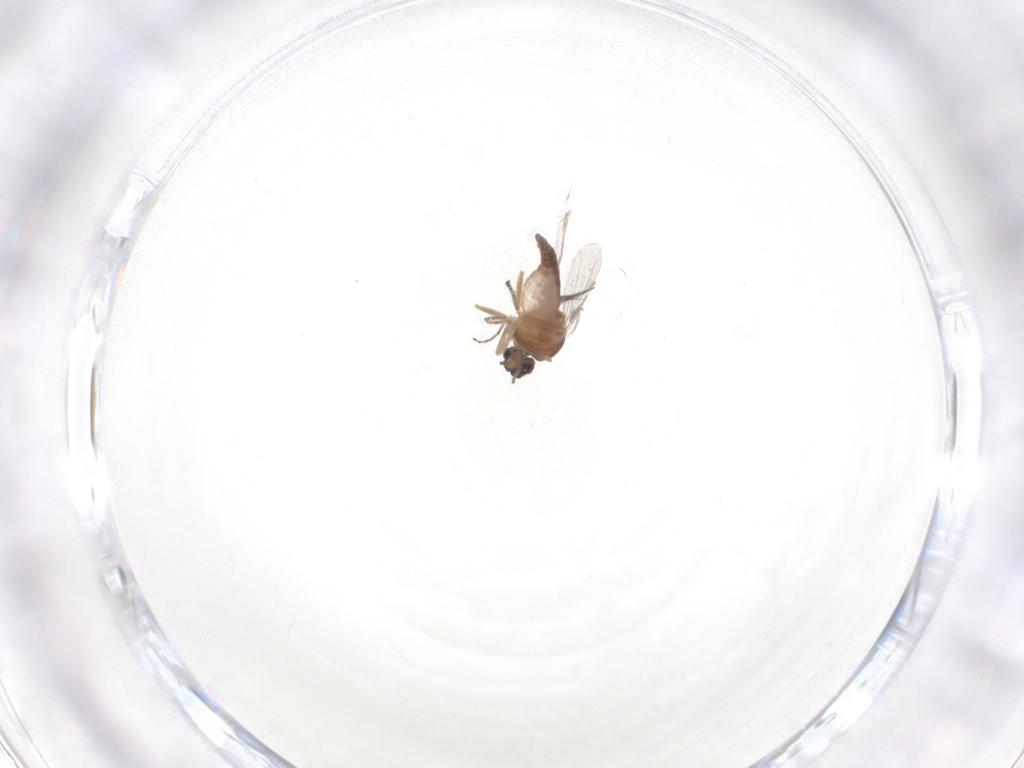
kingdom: Animalia
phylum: Arthropoda
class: Insecta
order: Diptera
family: Ceratopogonidae
